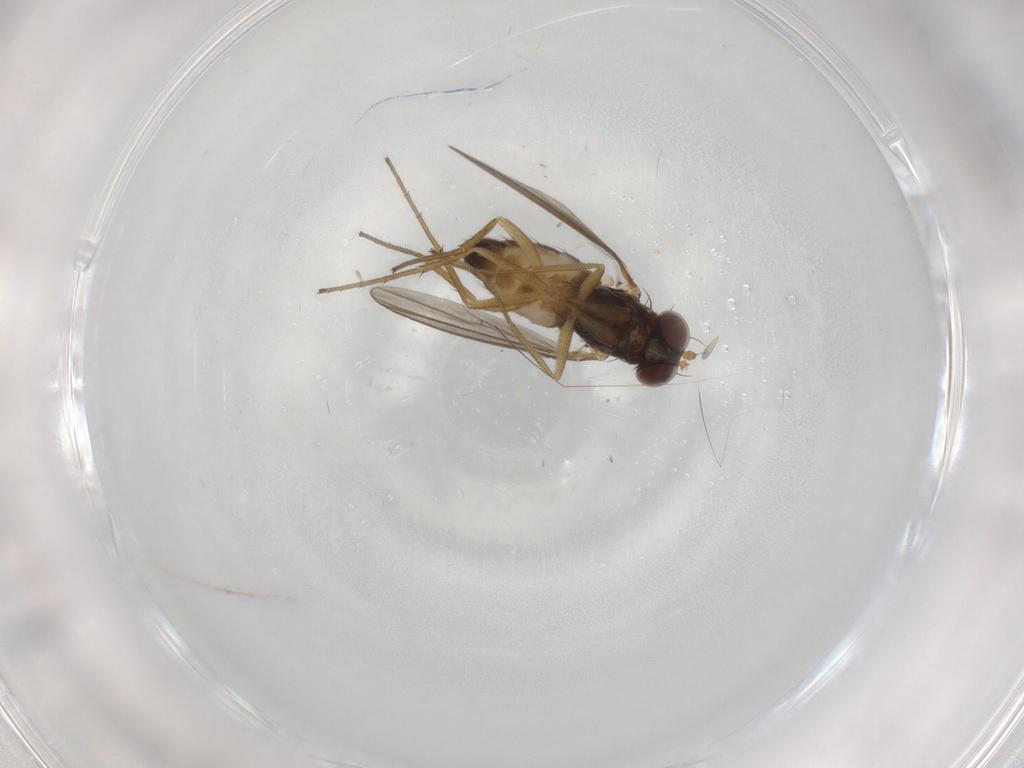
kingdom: Animalia
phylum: Arthropoda
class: Insecta
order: Diptera
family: Dolichopodidae
